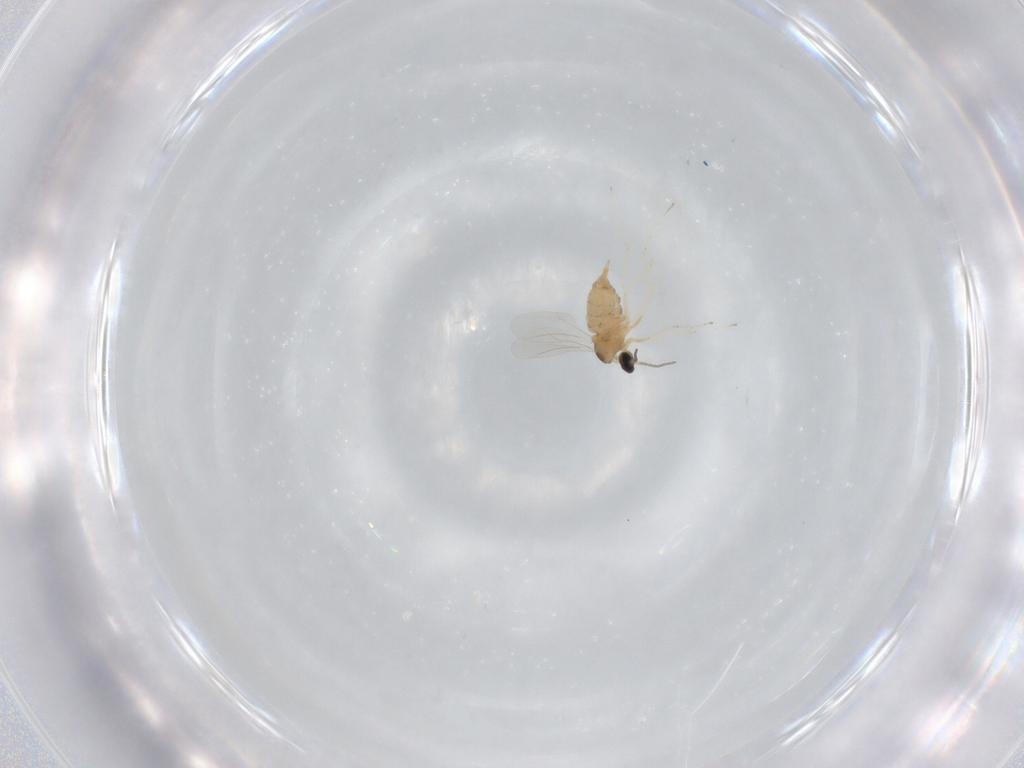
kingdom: Animalia
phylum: Arthropoda
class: Insecta
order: Diptera
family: Cecidomyiidae
